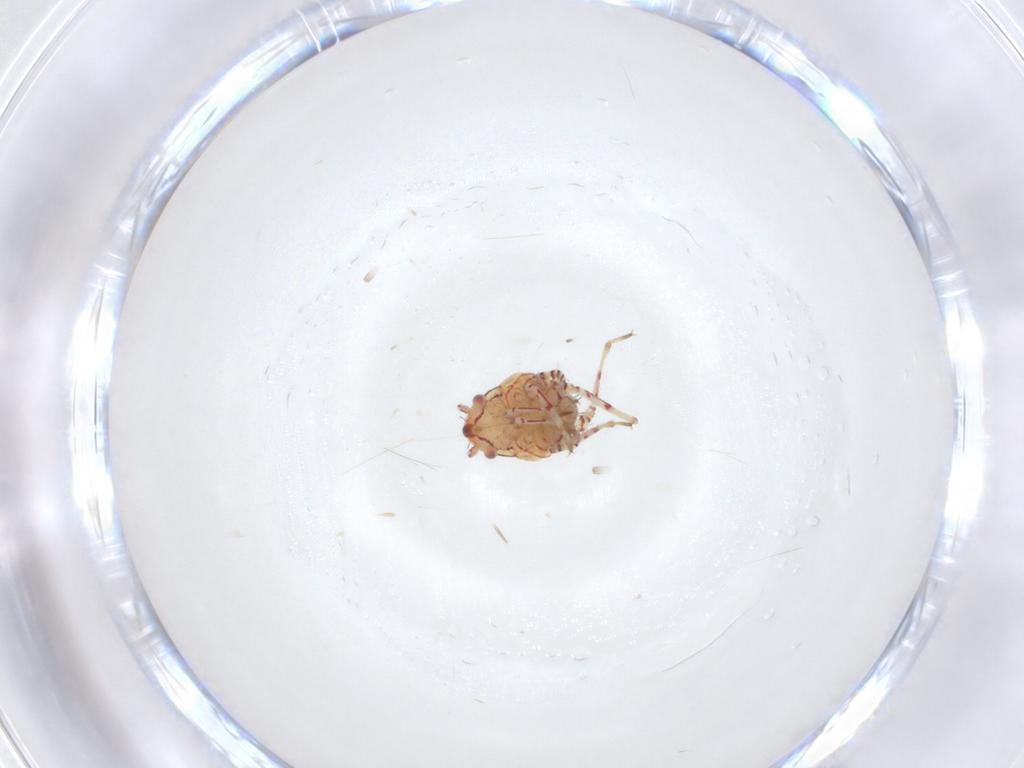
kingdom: Animalia
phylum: Arthropoda
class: Insecta
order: Hemiptera
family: Miridae
